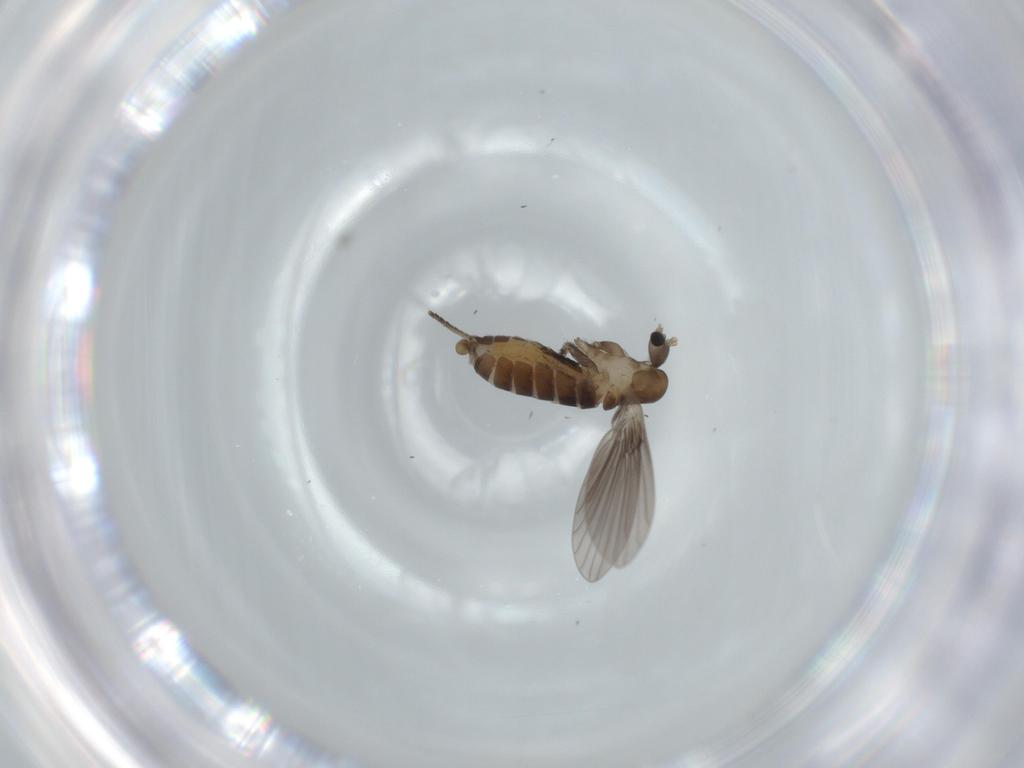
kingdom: Animalia
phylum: Arthropoda
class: Insecta
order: Diptera
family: Psychodidae
